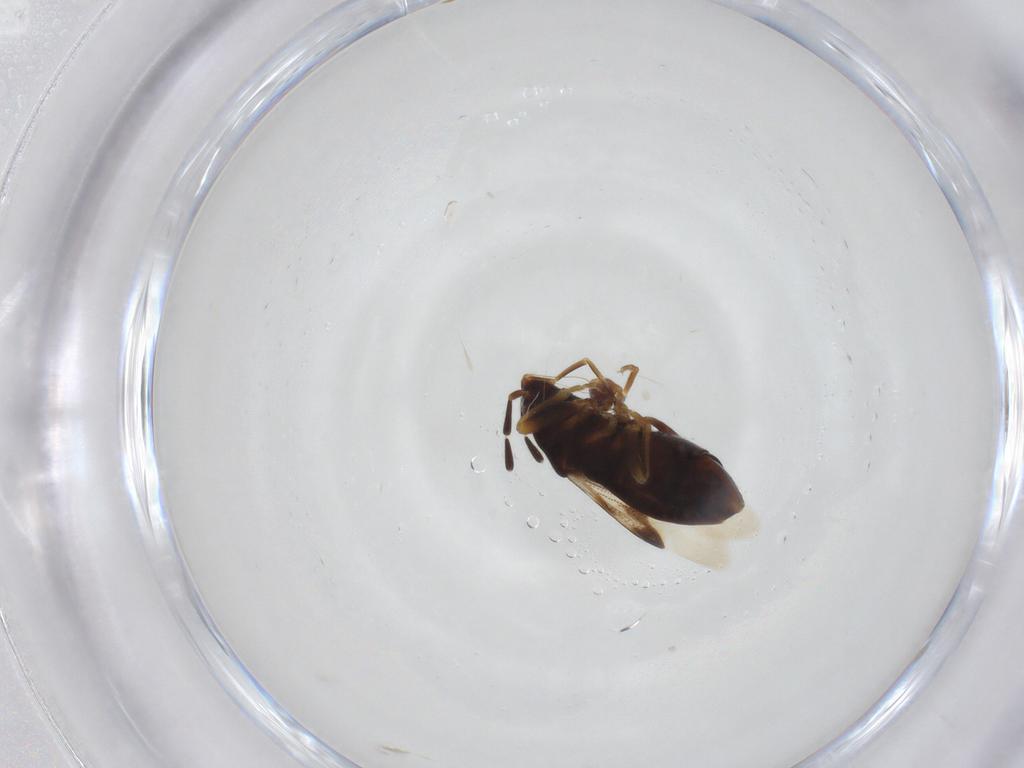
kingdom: Animalia
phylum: Arthropoda
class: Insecta
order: Hemiptera
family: Rhyparochromidae
